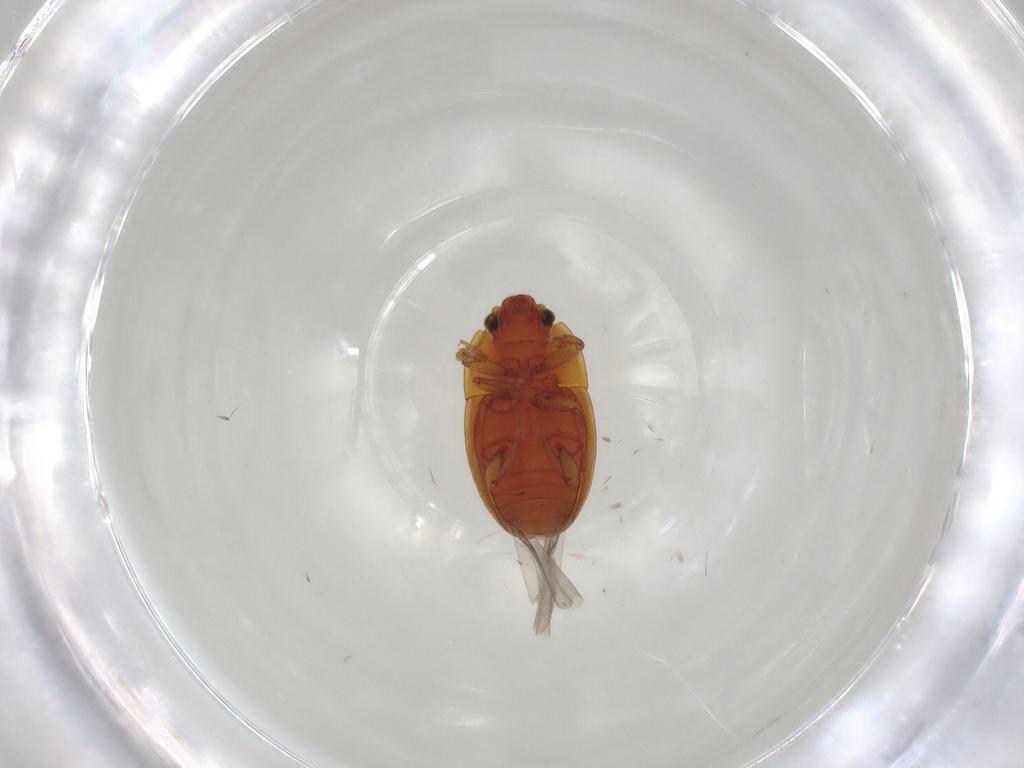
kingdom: Animalia
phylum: Arthropoda
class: Insecta
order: Coleoptera
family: Nitidulidae
